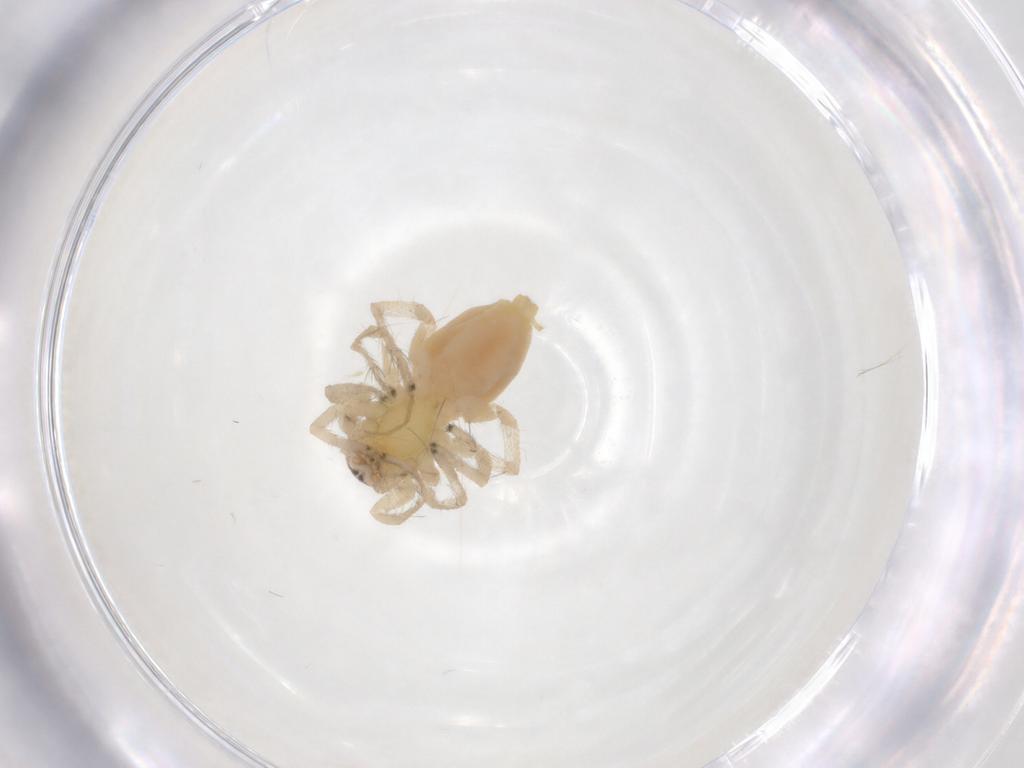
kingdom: Animalia
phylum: Arthropoda
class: Arachnida
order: Araneae
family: Clubionidae
